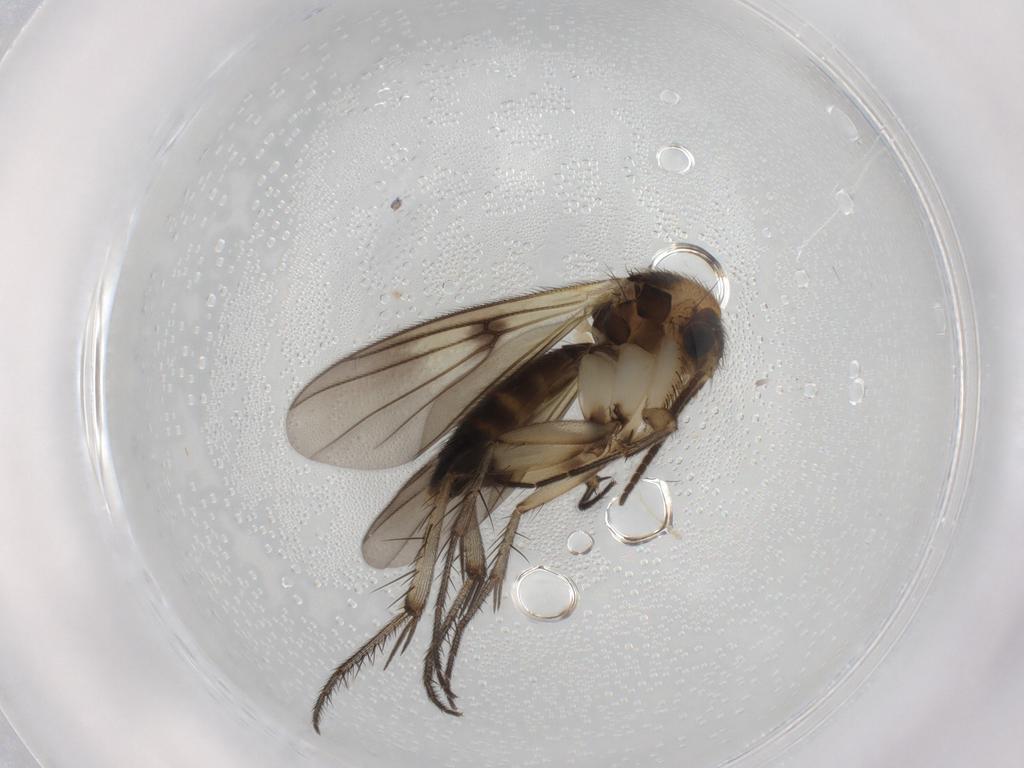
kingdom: Animalia
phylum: Arthropoda
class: Insecta
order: Diptera
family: Mycetophilidae
